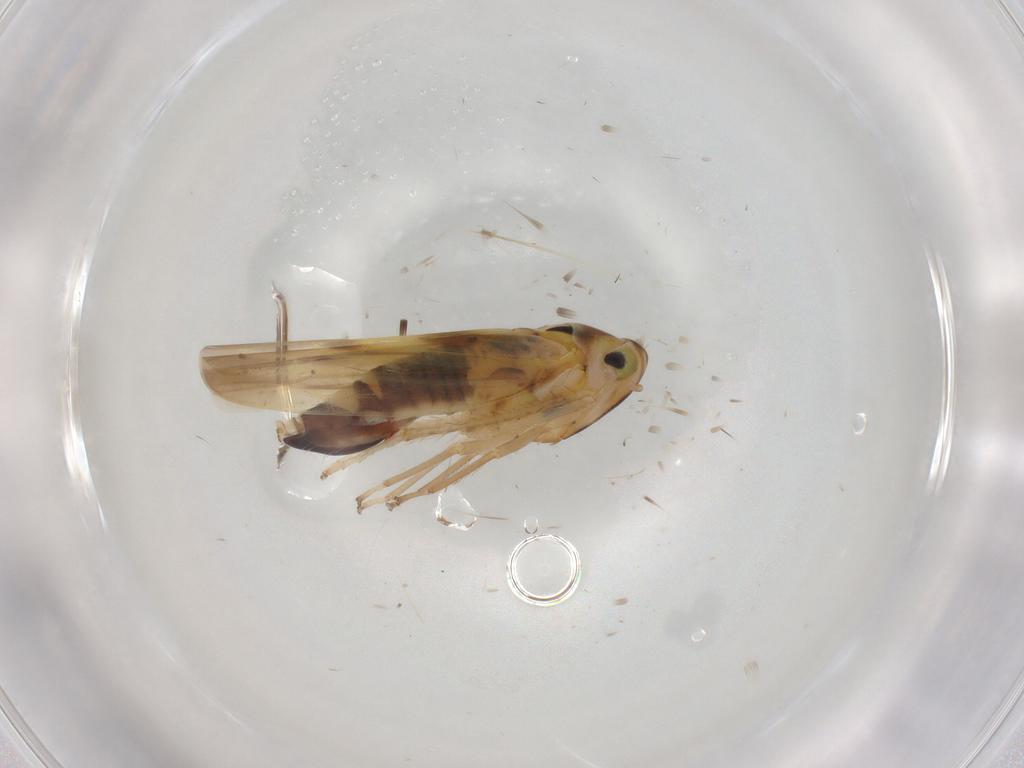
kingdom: Animalia
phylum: Arthropoda
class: Insecta
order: Hemiptera
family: Cicadellidae
